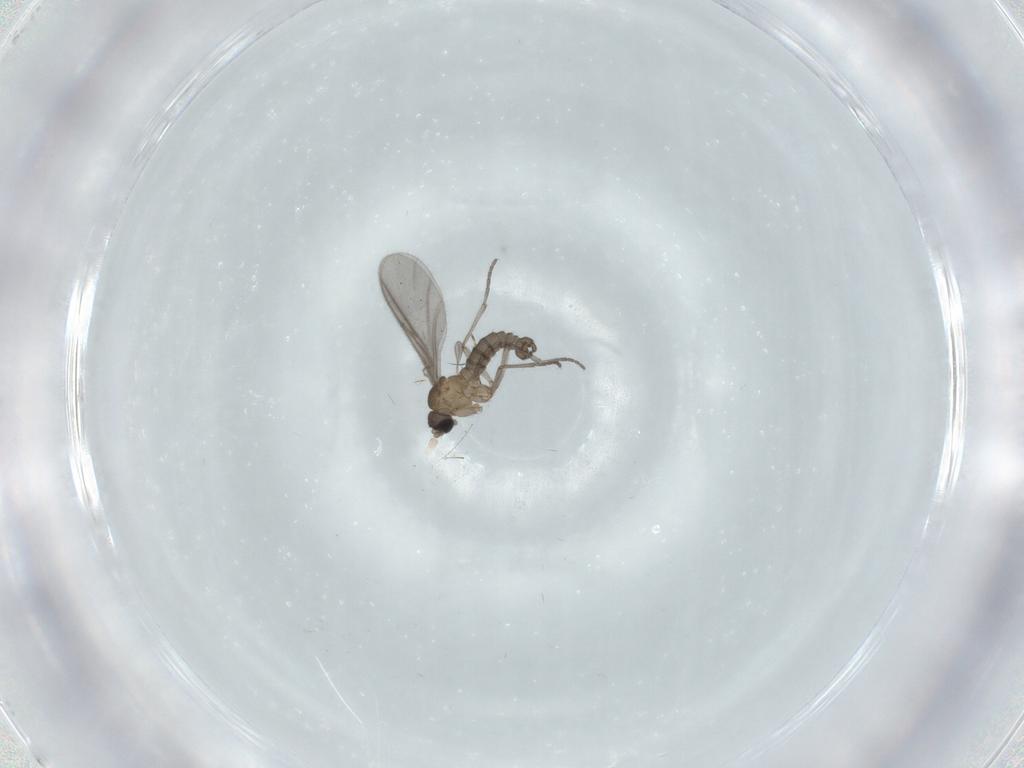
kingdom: Animalia
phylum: Arthropoda
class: Insecta
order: Diptera
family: Sciaridae
